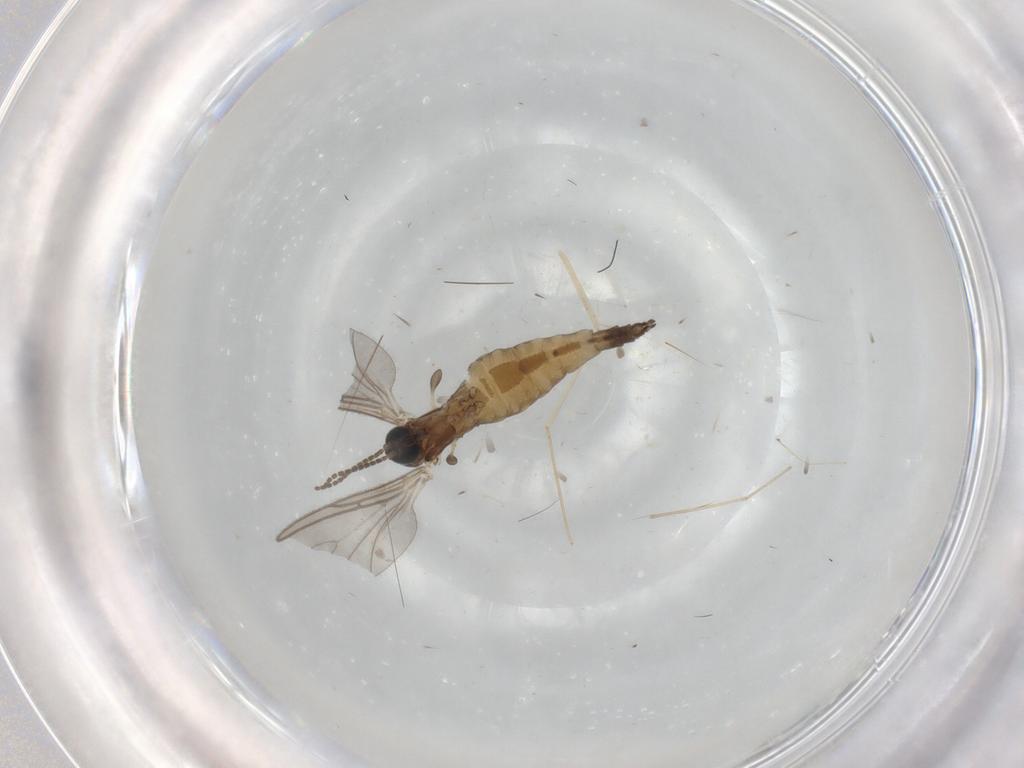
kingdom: Animalia
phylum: Arthropoda
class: Insecta
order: Diptera
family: Sciaridae
